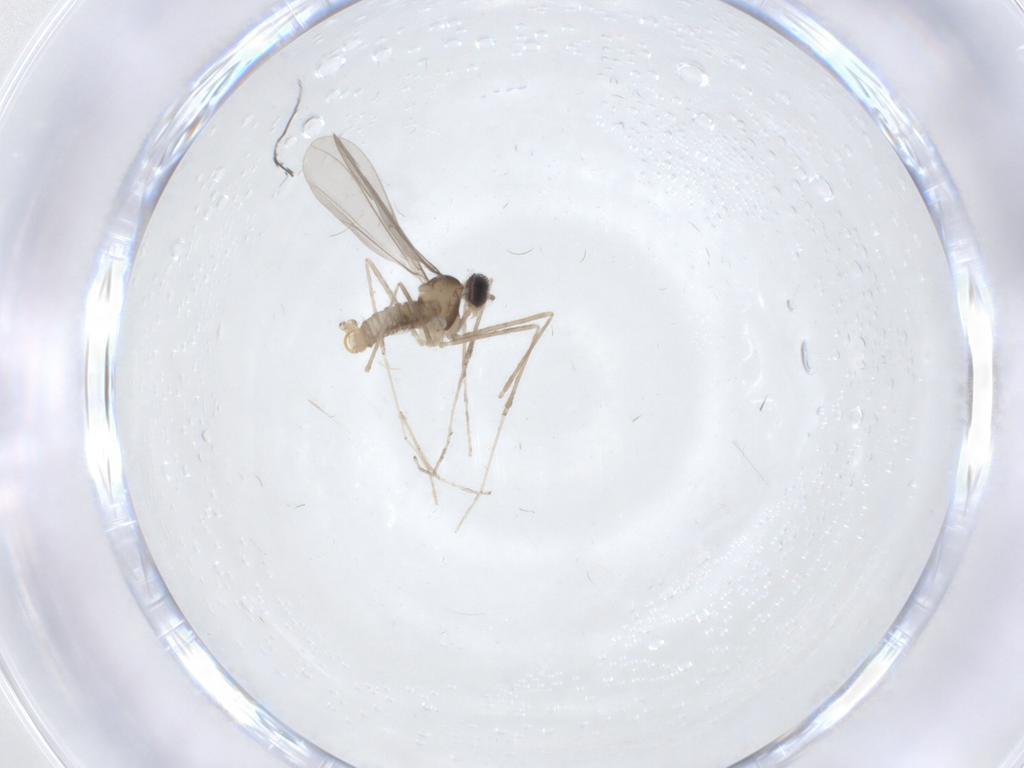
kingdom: Animalia
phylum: Arthropoda
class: Insecta
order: Diptera
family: Cecidomyiidae
